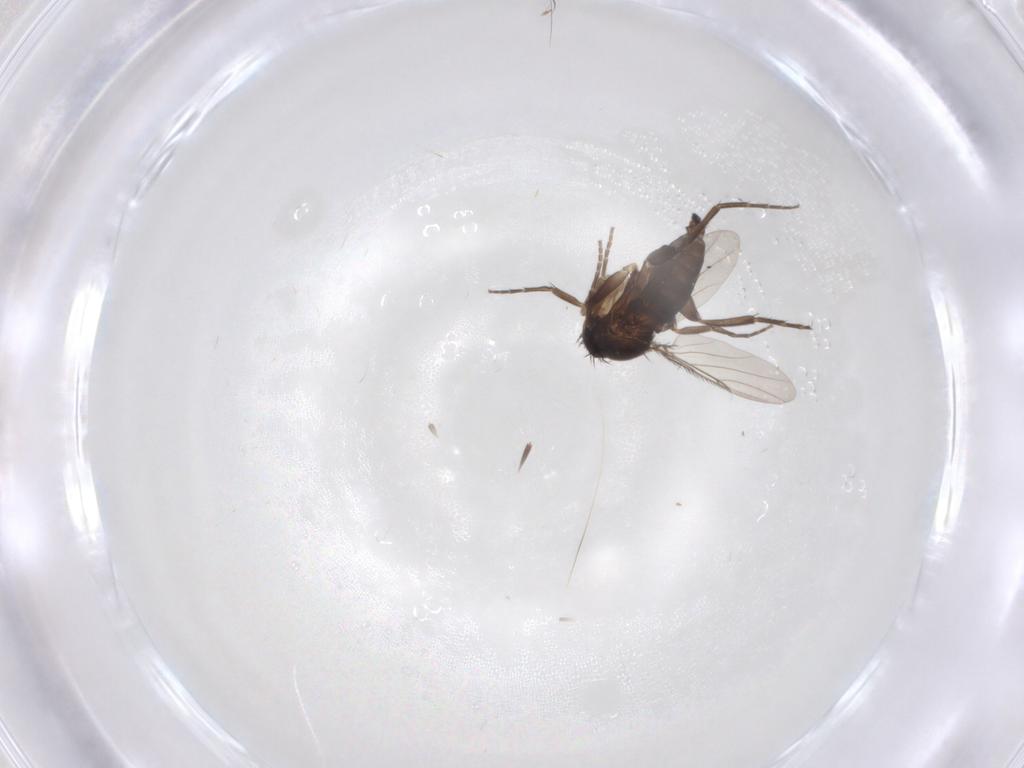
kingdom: Animalia
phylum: Arthropoda
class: Insecta
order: Diptera
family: Phoridae
